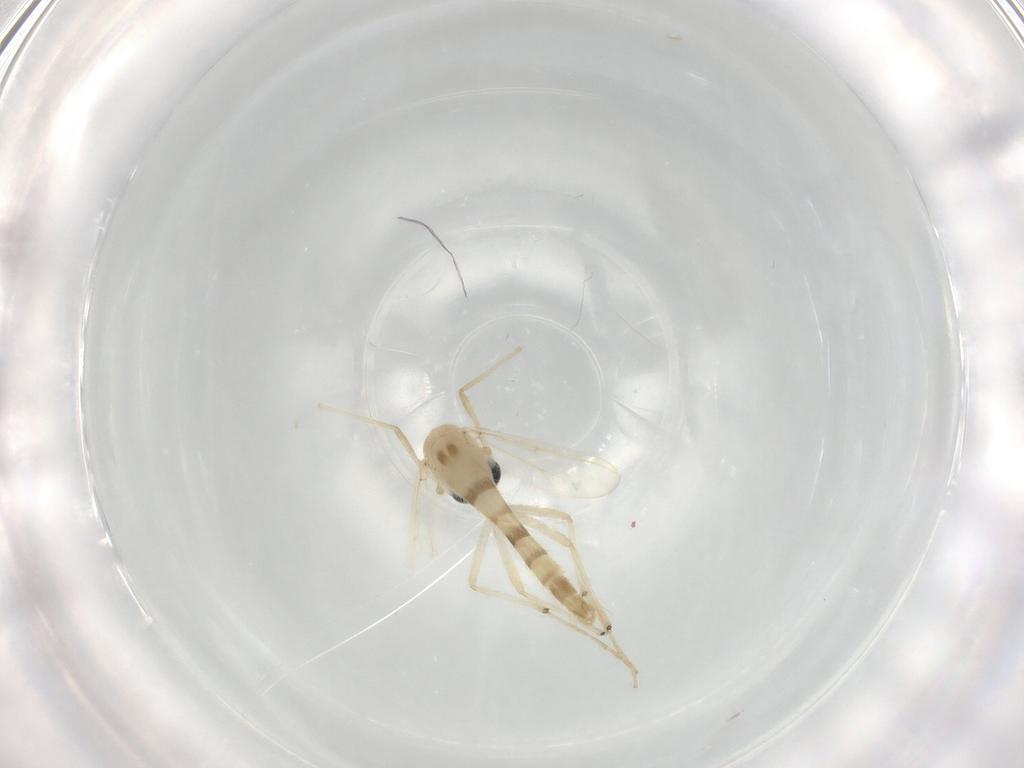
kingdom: Animalia
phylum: Arthropoda
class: Insecta
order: Diptera
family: Chironomidae
